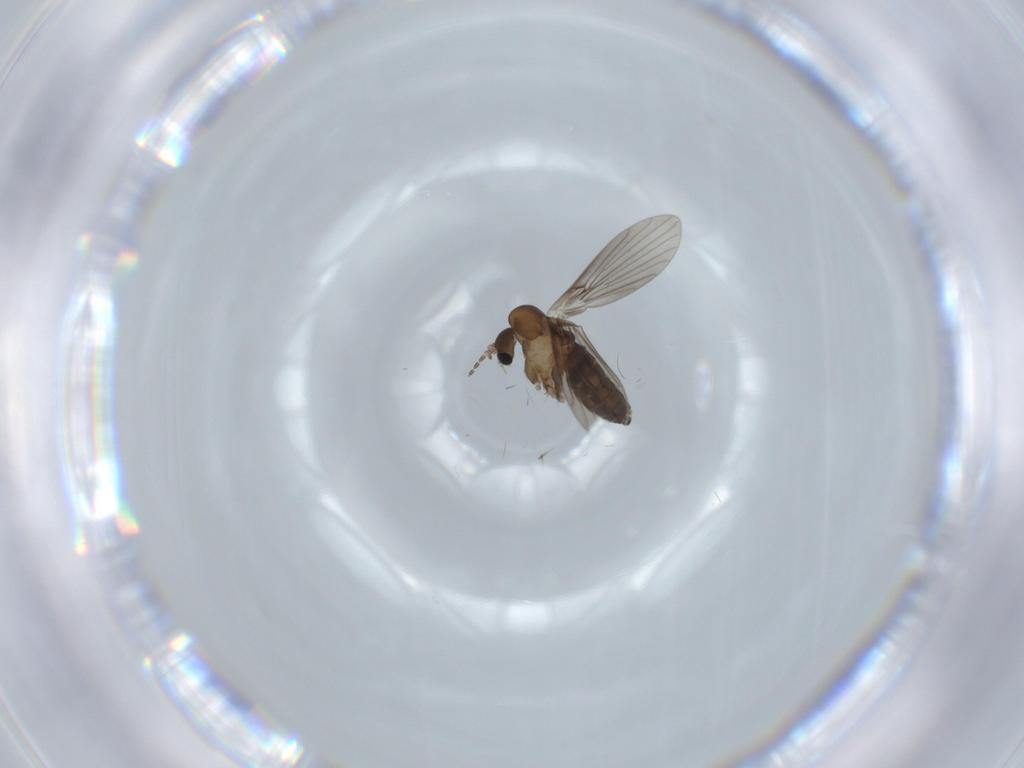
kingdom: Animalia
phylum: Arthropoda
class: Insecta
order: Diptera
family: Psychodidae
